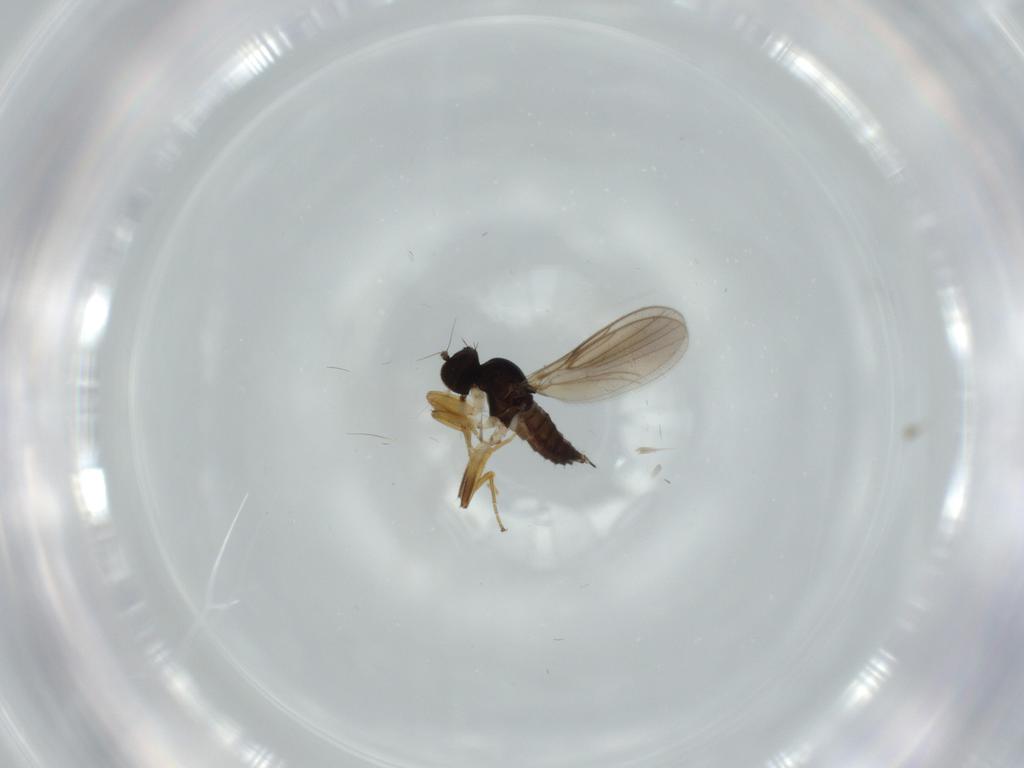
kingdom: Animalia
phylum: Arthropoda
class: Insecta
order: Diptera
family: Hybotidae
